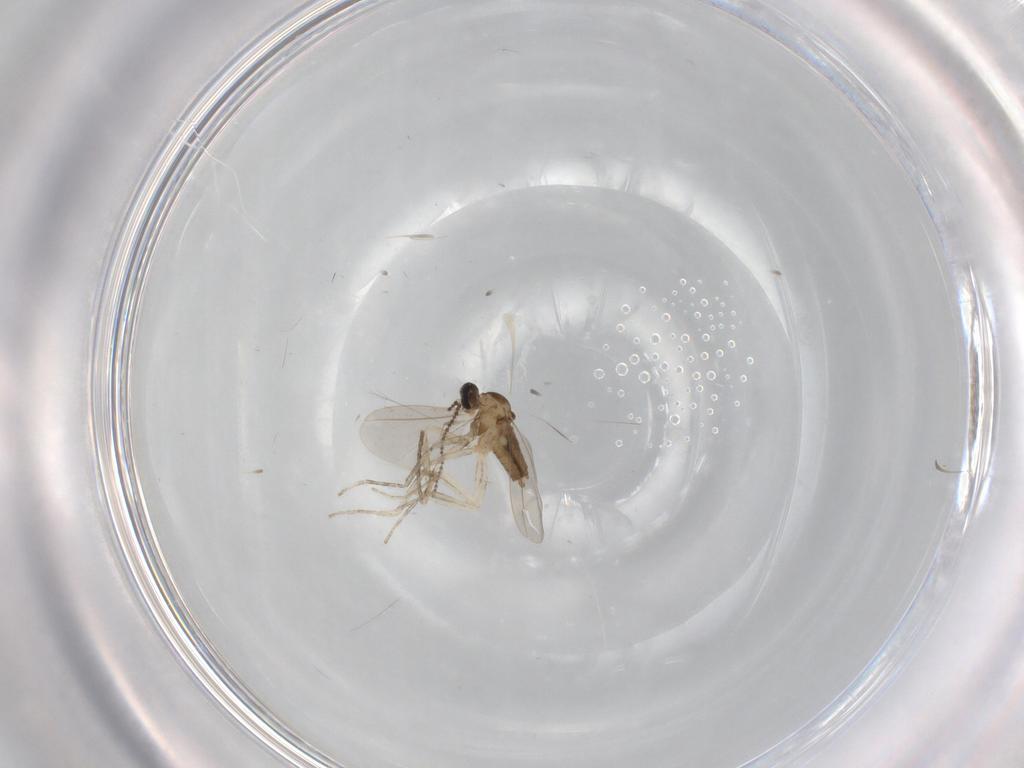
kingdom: Animalia
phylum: Arthropoda
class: Insecta
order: Diptera
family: Cecidomyiidae
